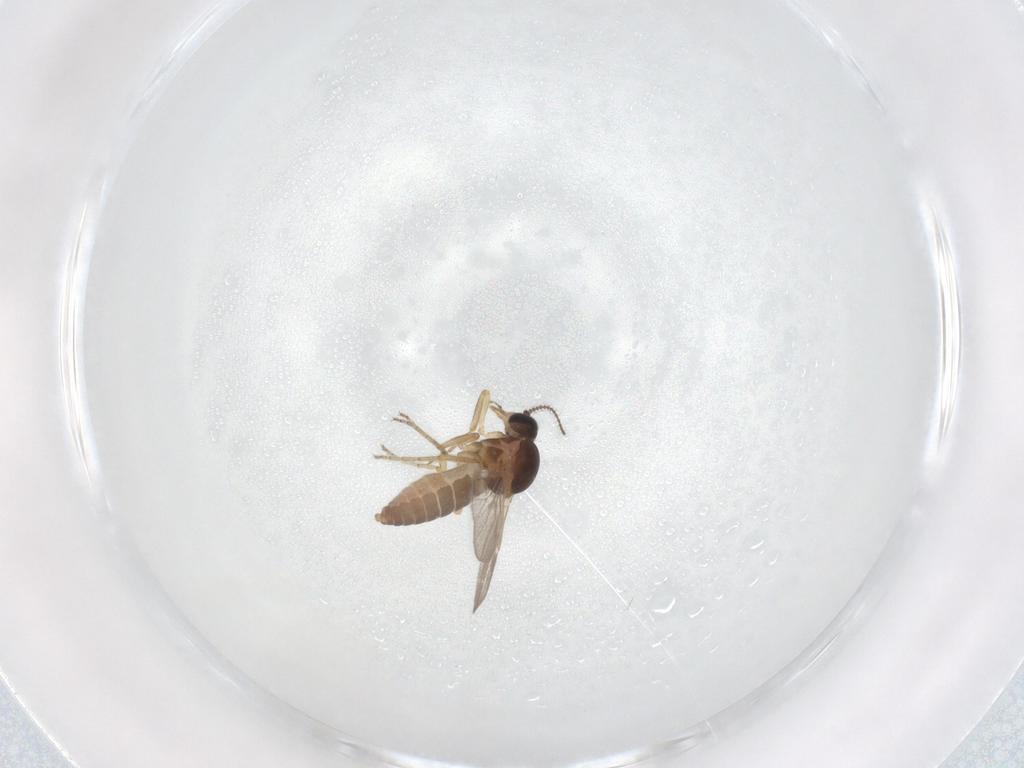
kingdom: Animalia
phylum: Arthropoda
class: Insecta
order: Diptera
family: Ceratopogonidae
